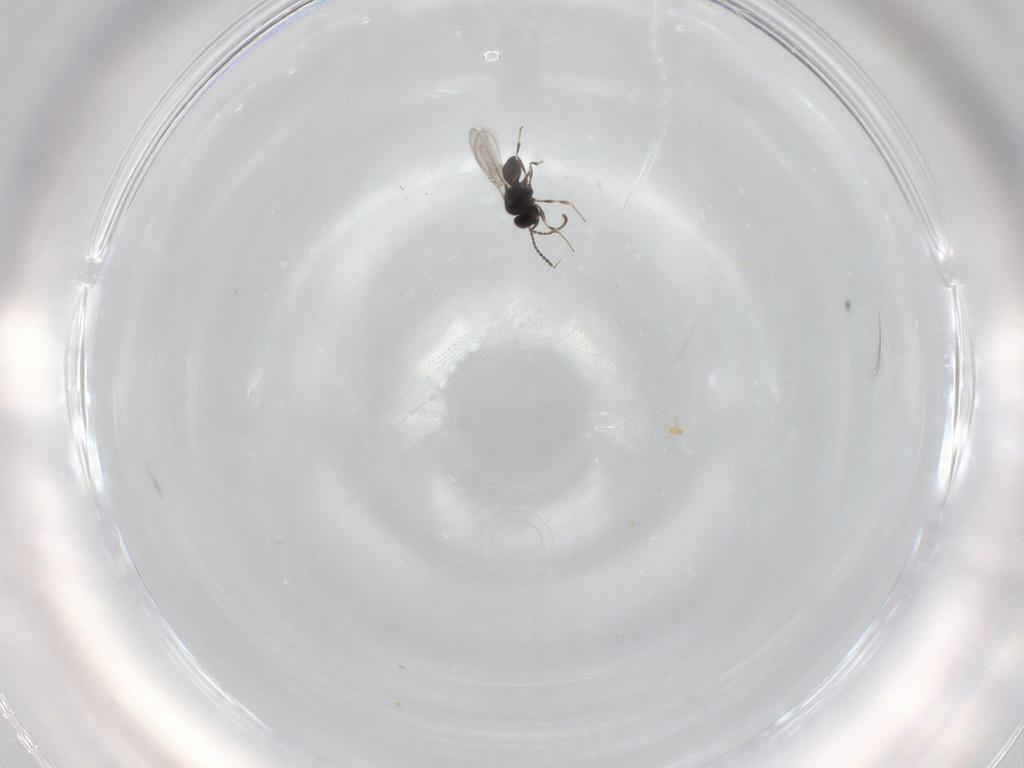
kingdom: Animalia
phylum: Arthropoda
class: Insecta
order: Hymenoptera
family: Scelionidae
